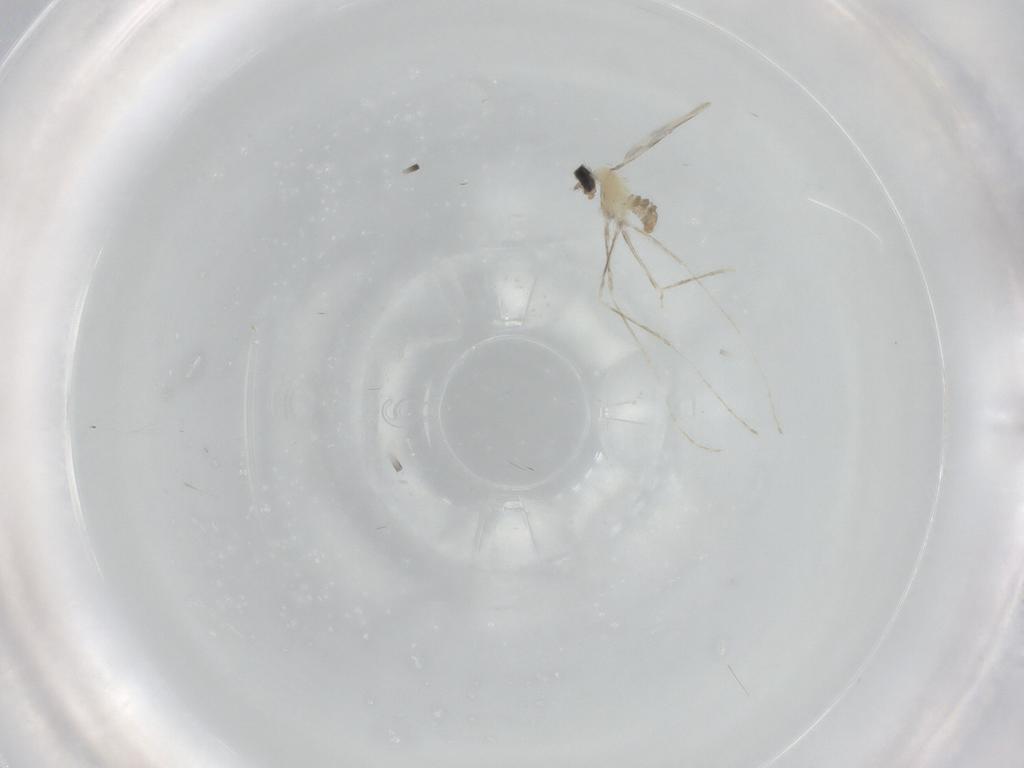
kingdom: Animalia
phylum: Arthropoda
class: Insecta
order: Diptera
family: Cecidomyiidae
